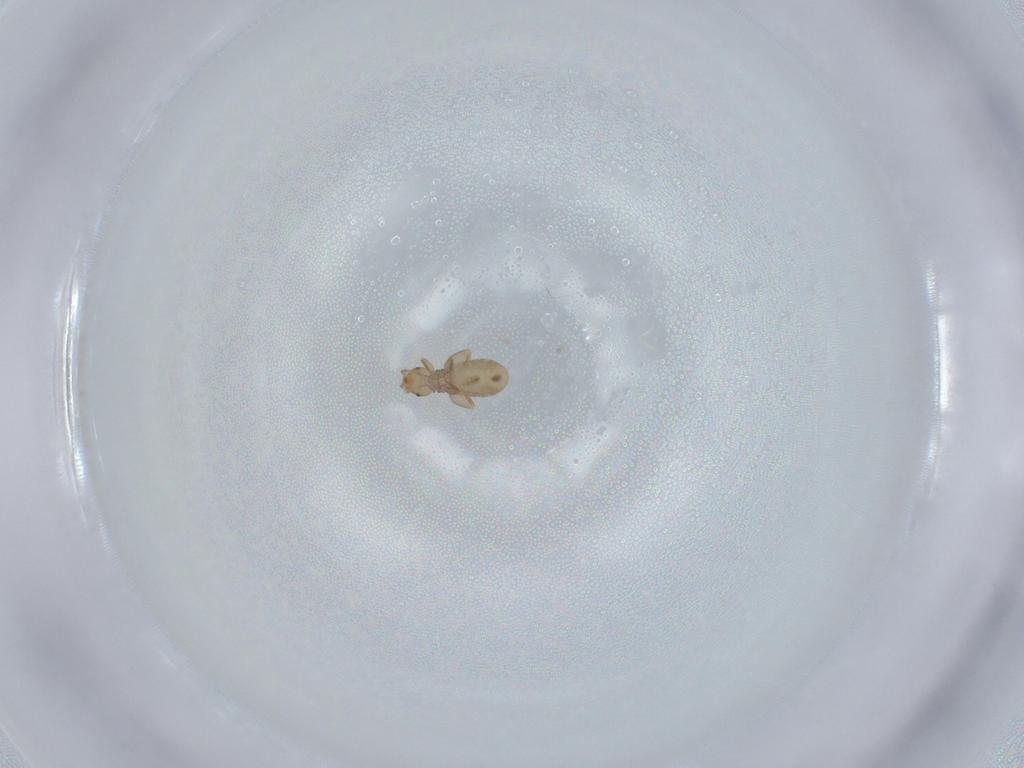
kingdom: Animalia
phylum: Arthropoda
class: Insecta
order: Psocodea
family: Liposcelididae
